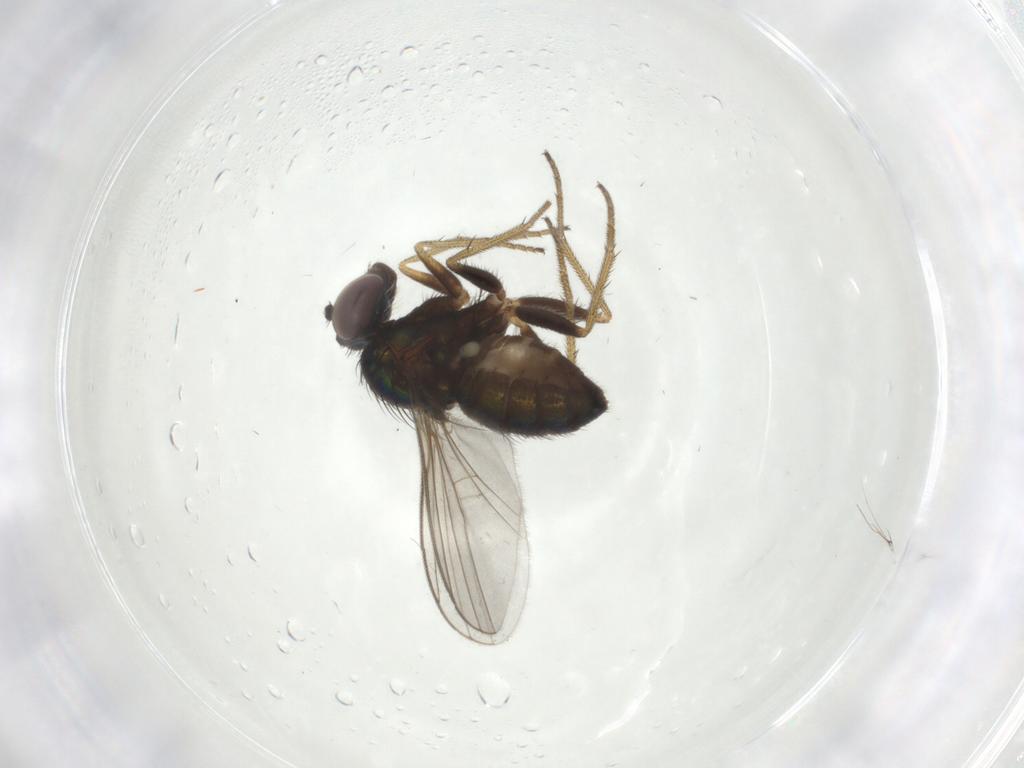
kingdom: Animalia
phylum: Arthropoda
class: Insecta
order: Diptera
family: Dolichopodidae
